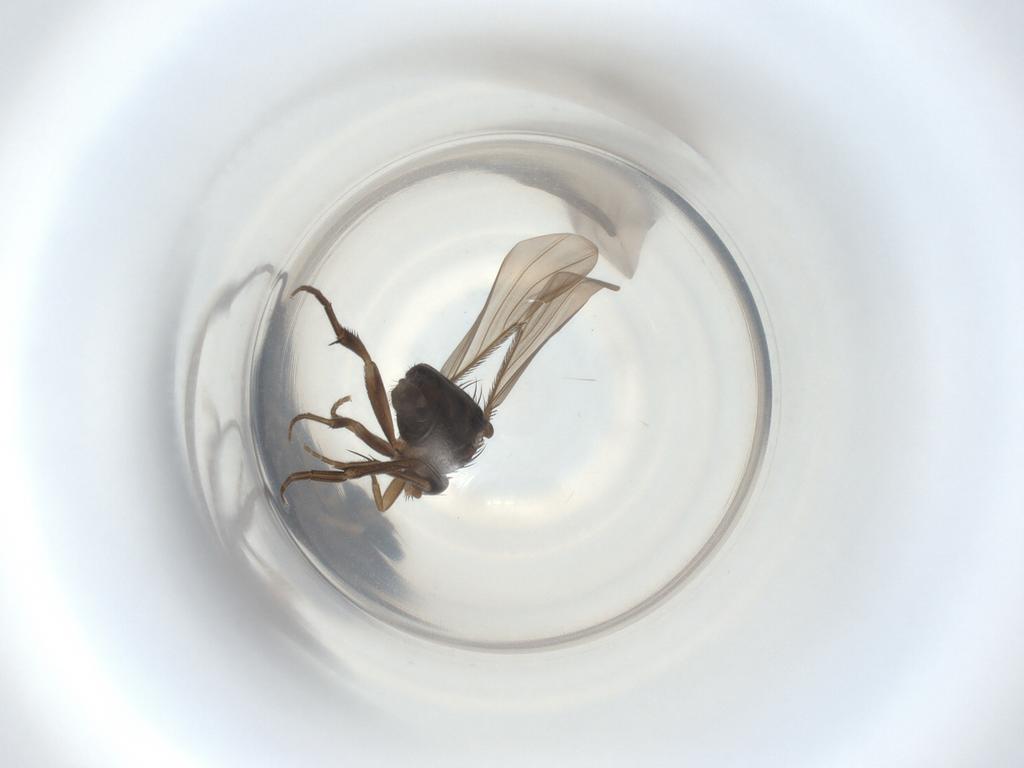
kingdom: Animalia
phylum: Arthropoda
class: Insecta
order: Diptera
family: Phoridae
